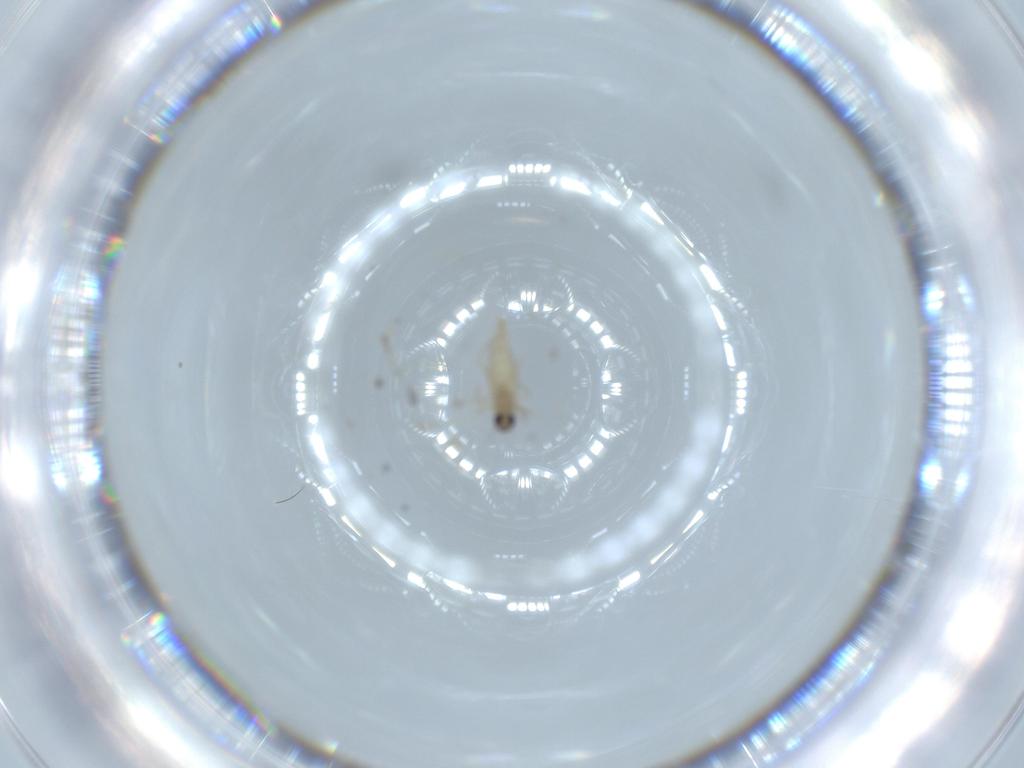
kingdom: Animalia
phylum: Arthropoda
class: Insecta
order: Diptera
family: Cecidomyiidae
